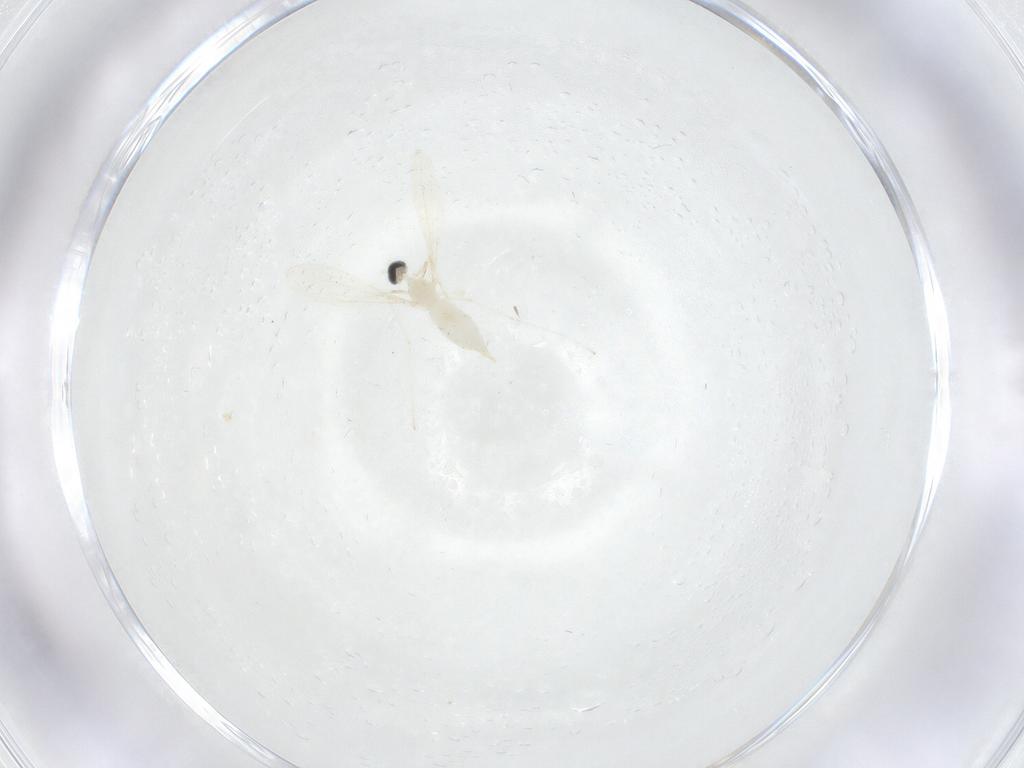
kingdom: Animalia
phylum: Arthropoda
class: Insecta
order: Diptera
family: Cecidomyiidae
